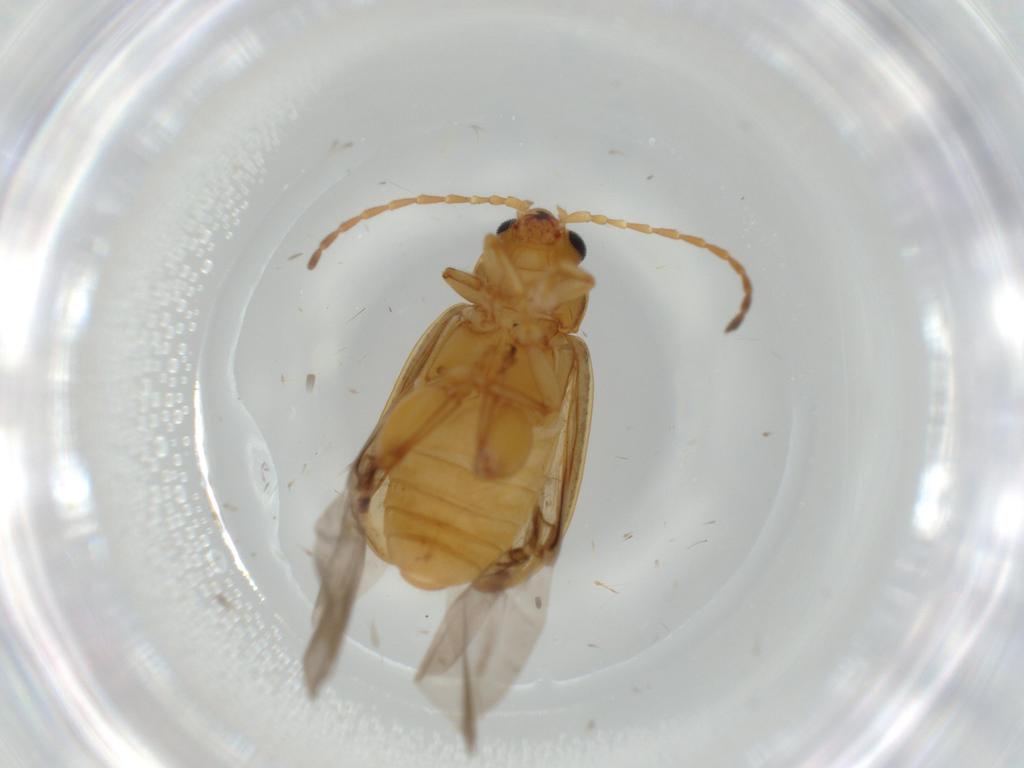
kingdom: Animalia
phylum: Arthropoda
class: Insecta
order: Coleoptera
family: Chrysomelidae
